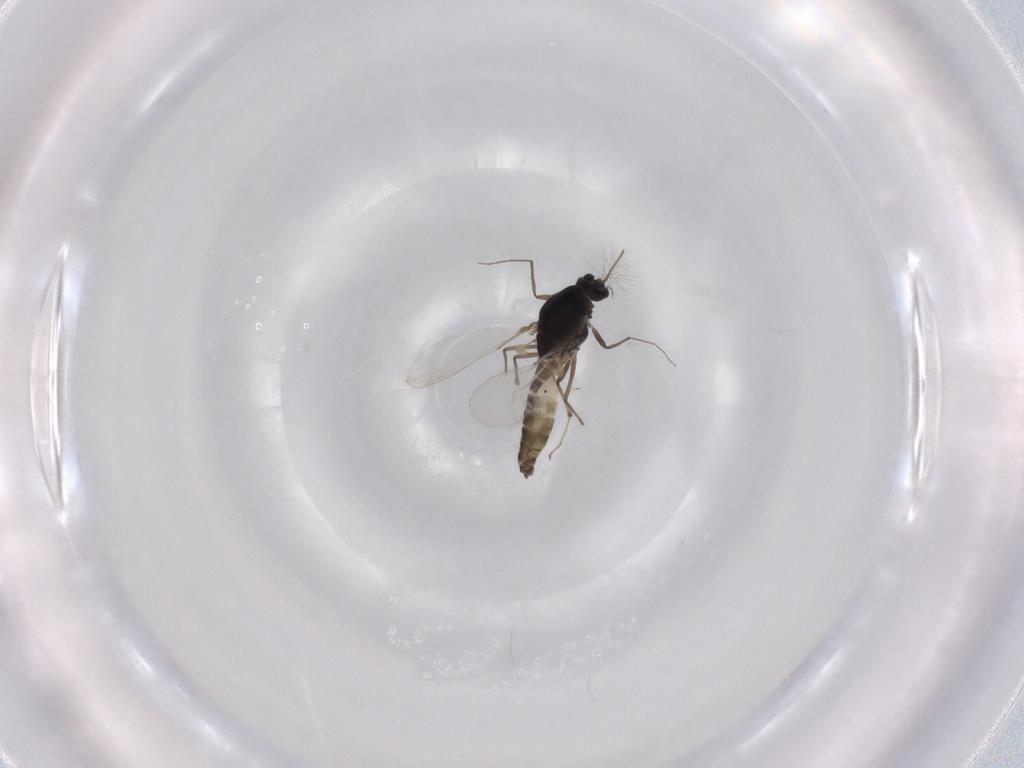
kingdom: Animalia
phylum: Arthropoda
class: Insecta
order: Diptera
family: Chironomidae
